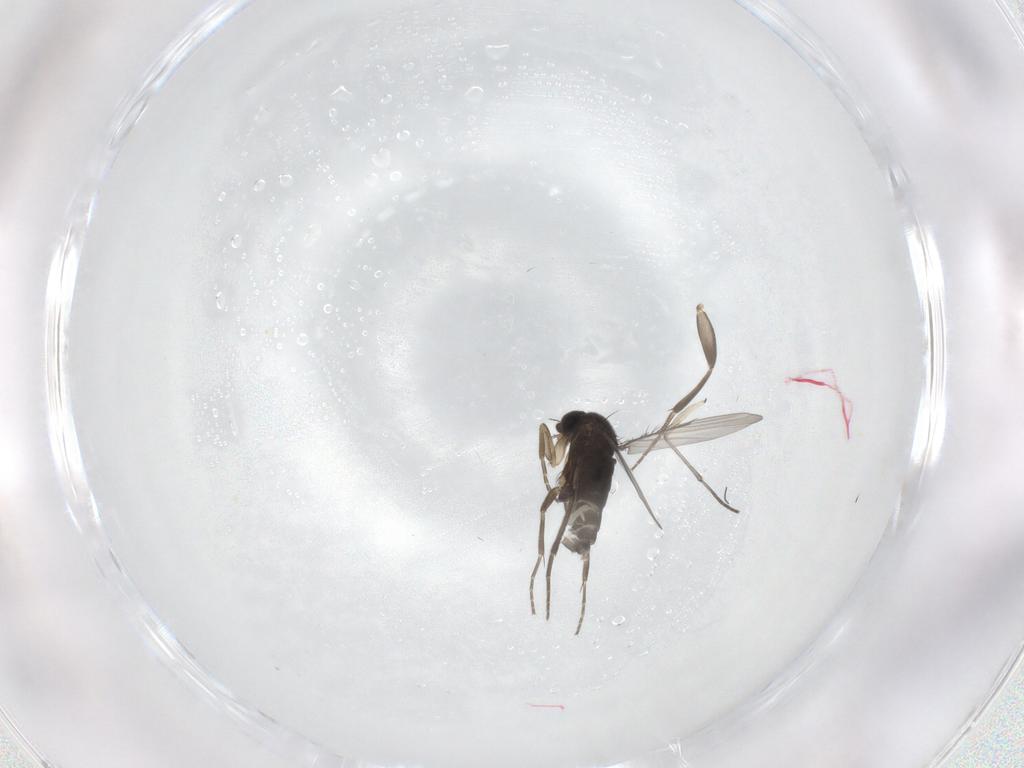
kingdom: Animalia
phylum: Arthropoda
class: Insecta
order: Diptera
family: Phoridae
